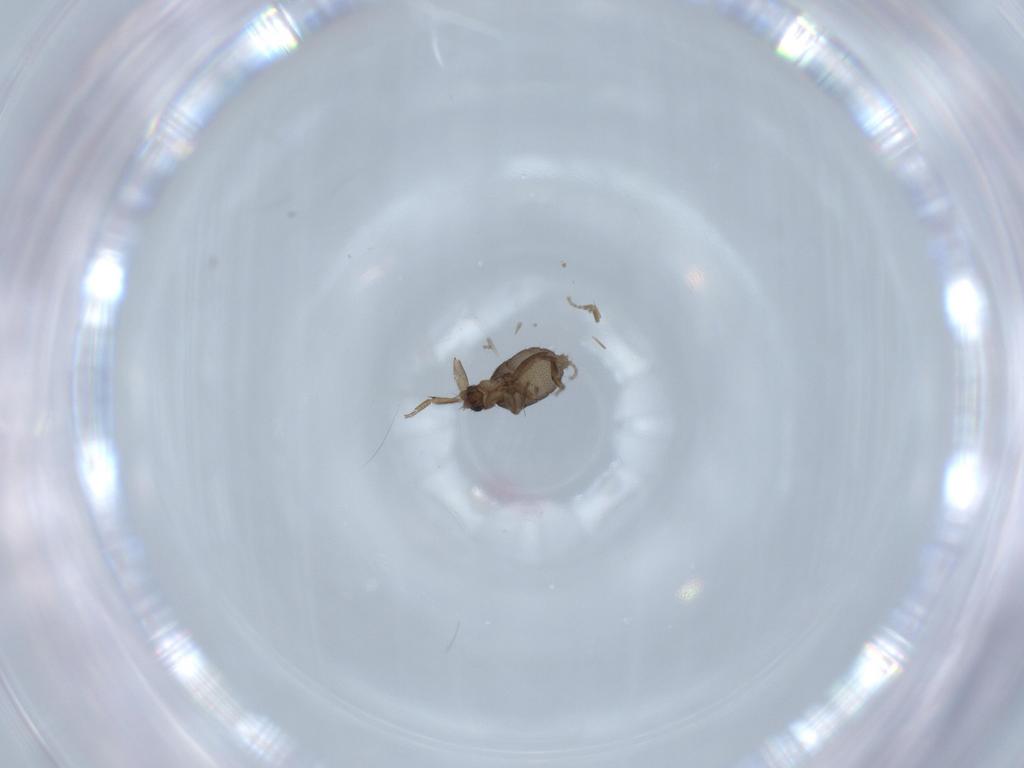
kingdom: Animalia
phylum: Arthropoda
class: Insecta
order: Diptera
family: Phoridae
